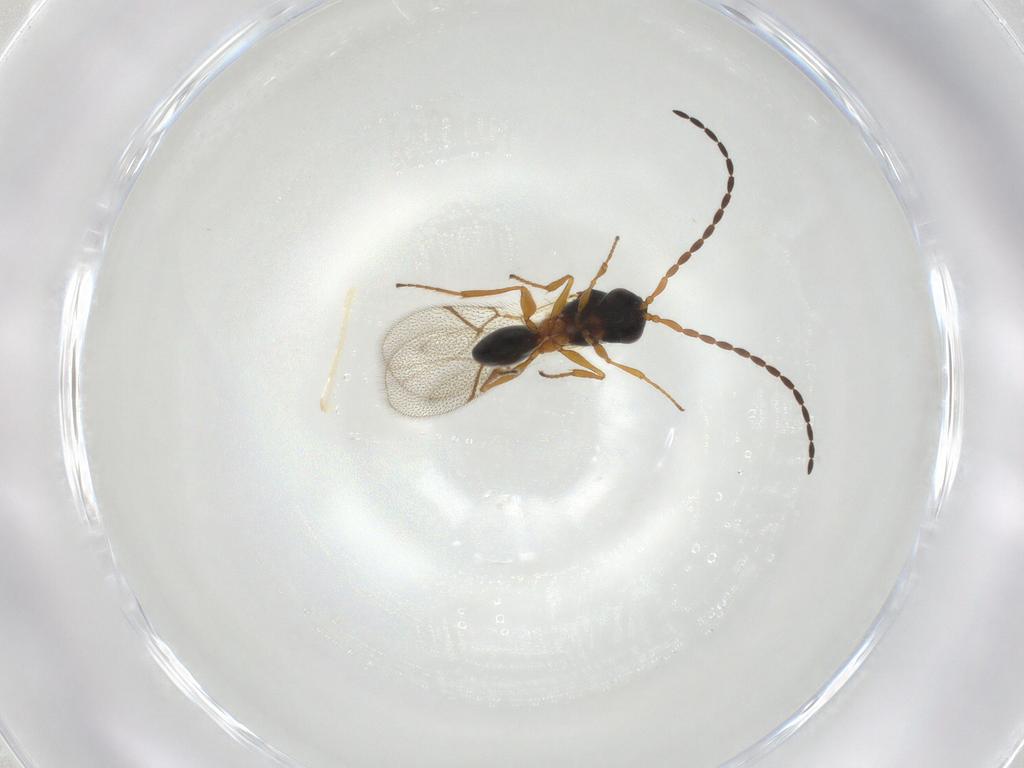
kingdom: Animalia
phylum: Arthropoda
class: Insecta
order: Hymenoptera
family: Figitidae
